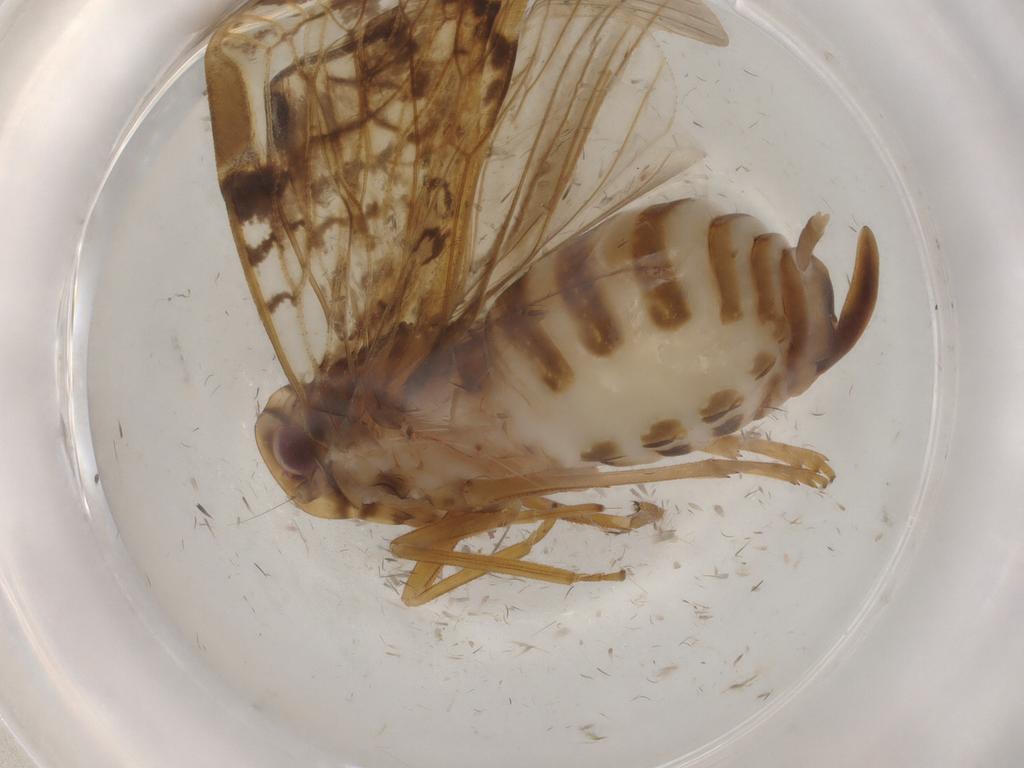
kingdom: Animalia
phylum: Arthropoda
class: Insecta
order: Hemiptera
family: Cixiidae
